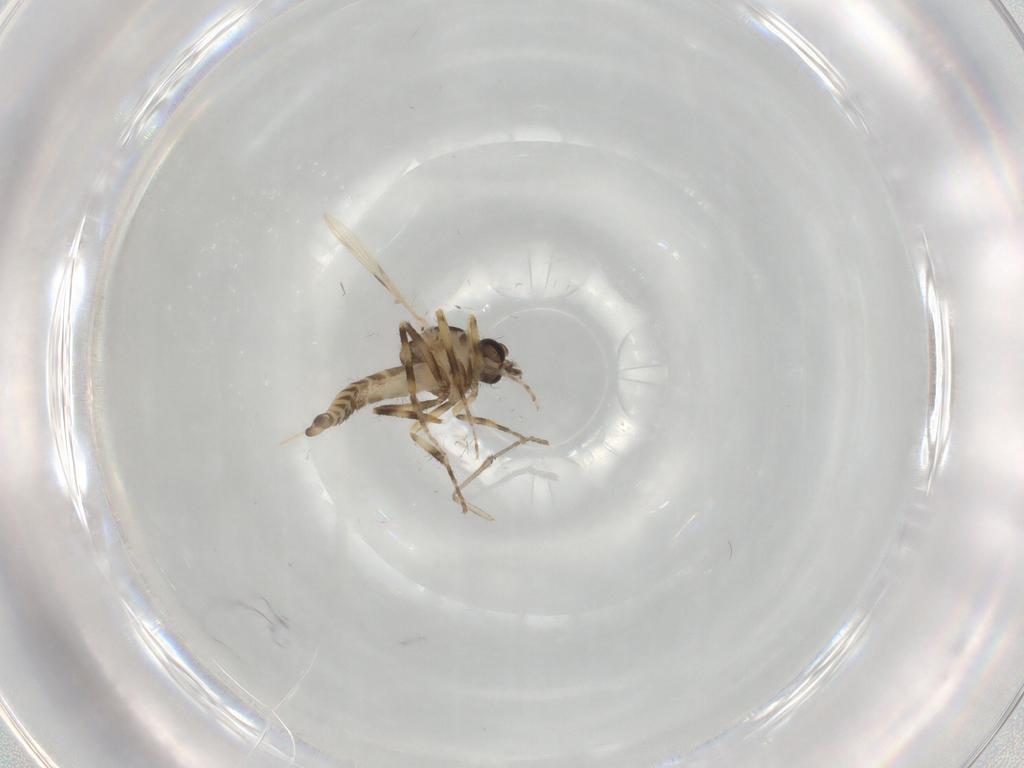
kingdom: Animalia
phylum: Arthropoda
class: Insecta
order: Diptera
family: Ceratopogonidae
